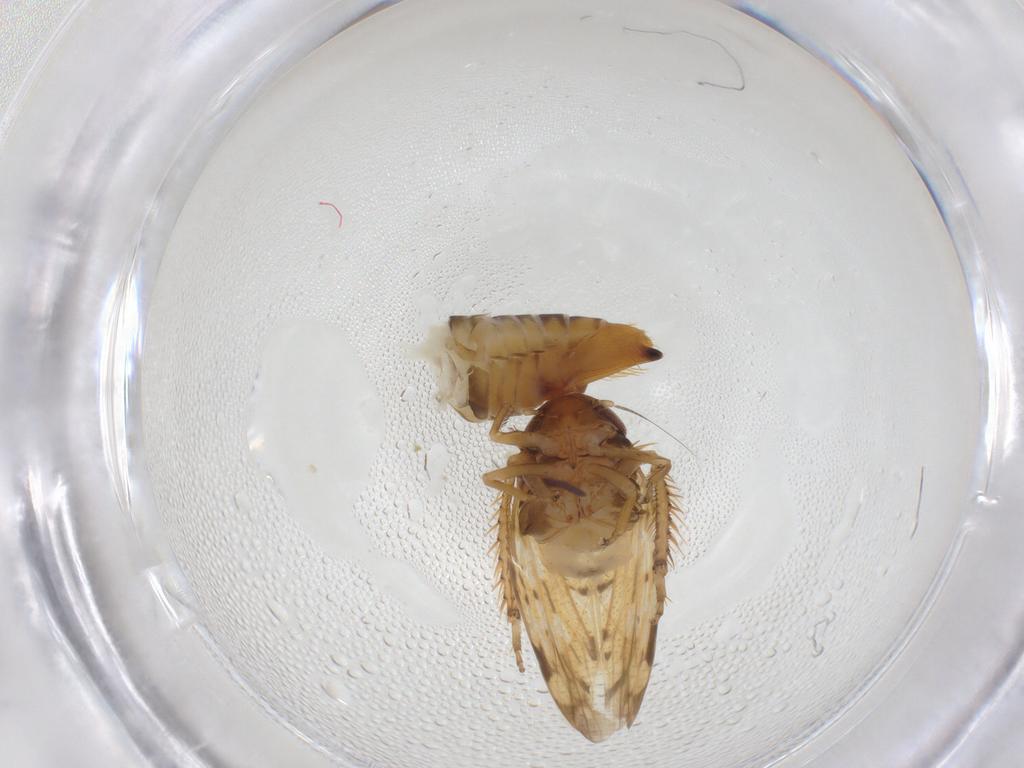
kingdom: Animalia
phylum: Arthropoda
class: Insecta
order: Hemiptera
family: Cicadellidae
